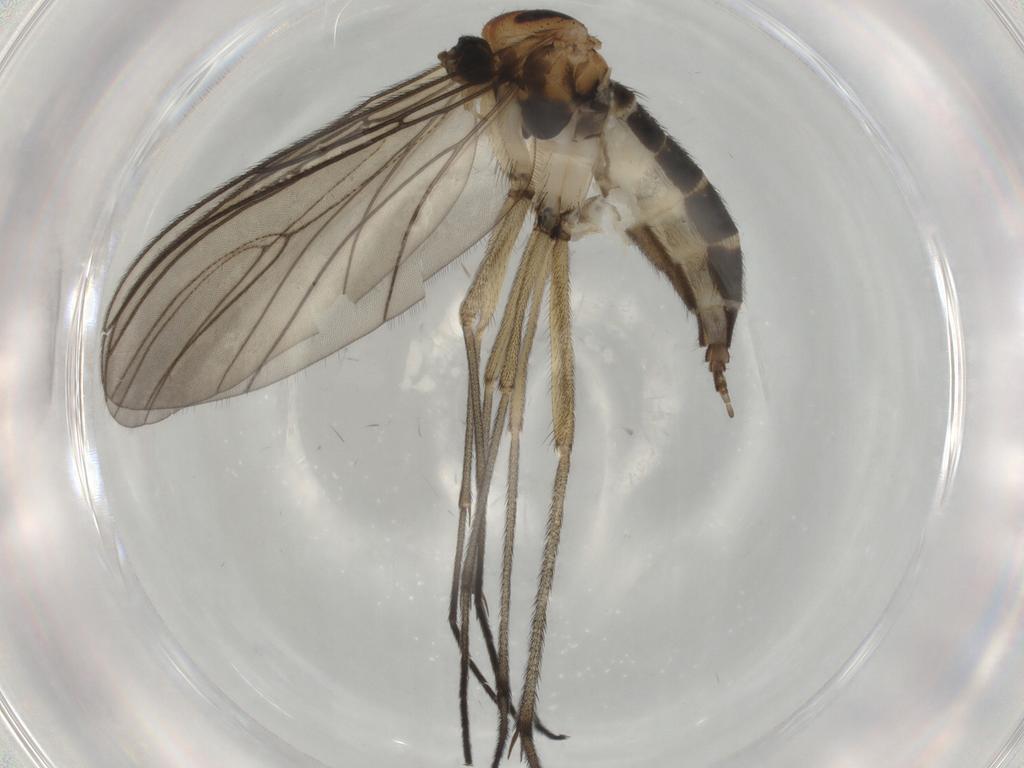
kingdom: Animalia
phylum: Arthropoda
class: Insecta
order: Diptera
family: Sciaridae
